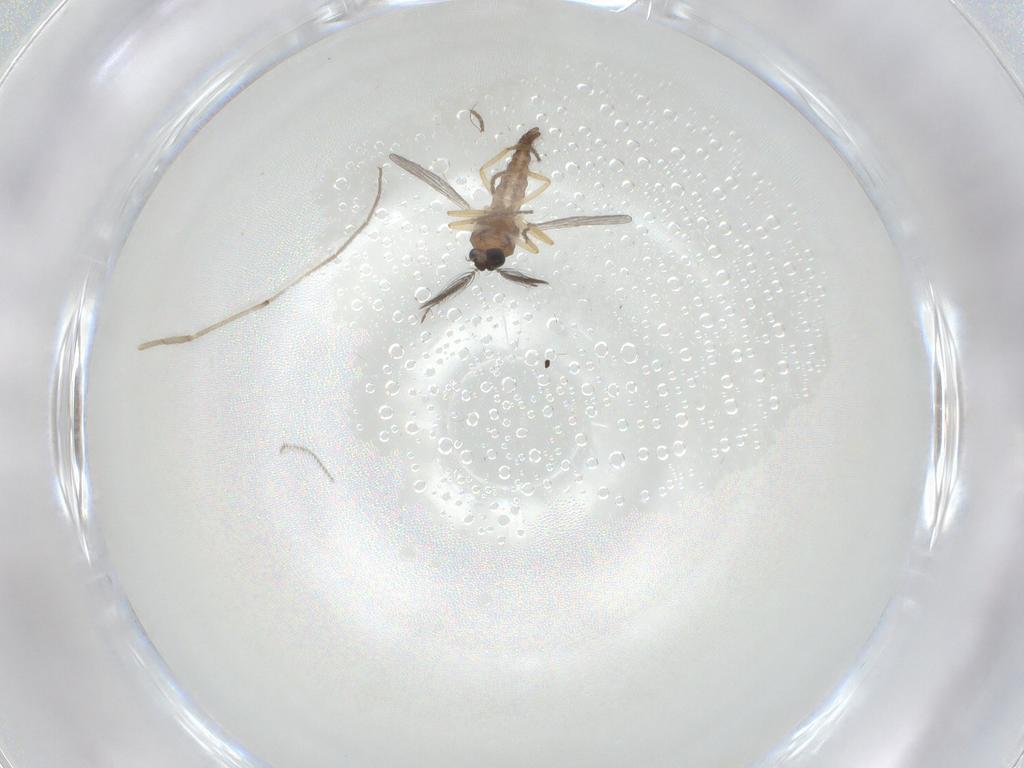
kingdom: Animalia
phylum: Arthropoda
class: Insecta
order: Diptera
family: Ceratopogonidae
